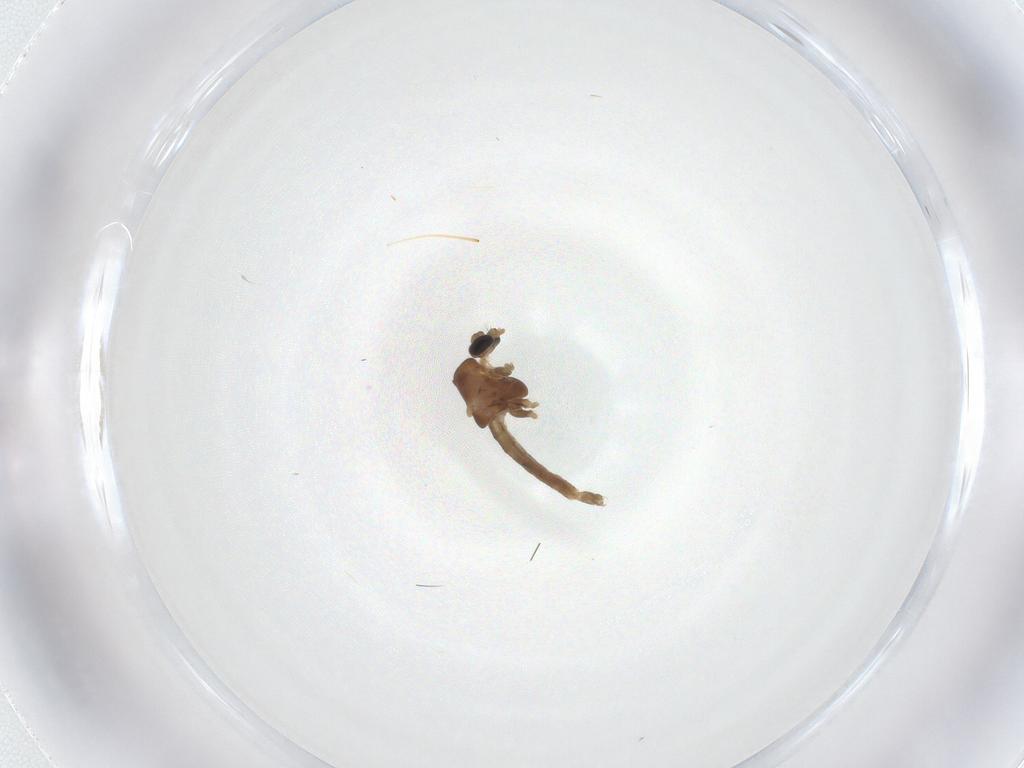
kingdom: Animalia
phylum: Arthropoda
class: Insecta
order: Diptera
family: Chironomidae
